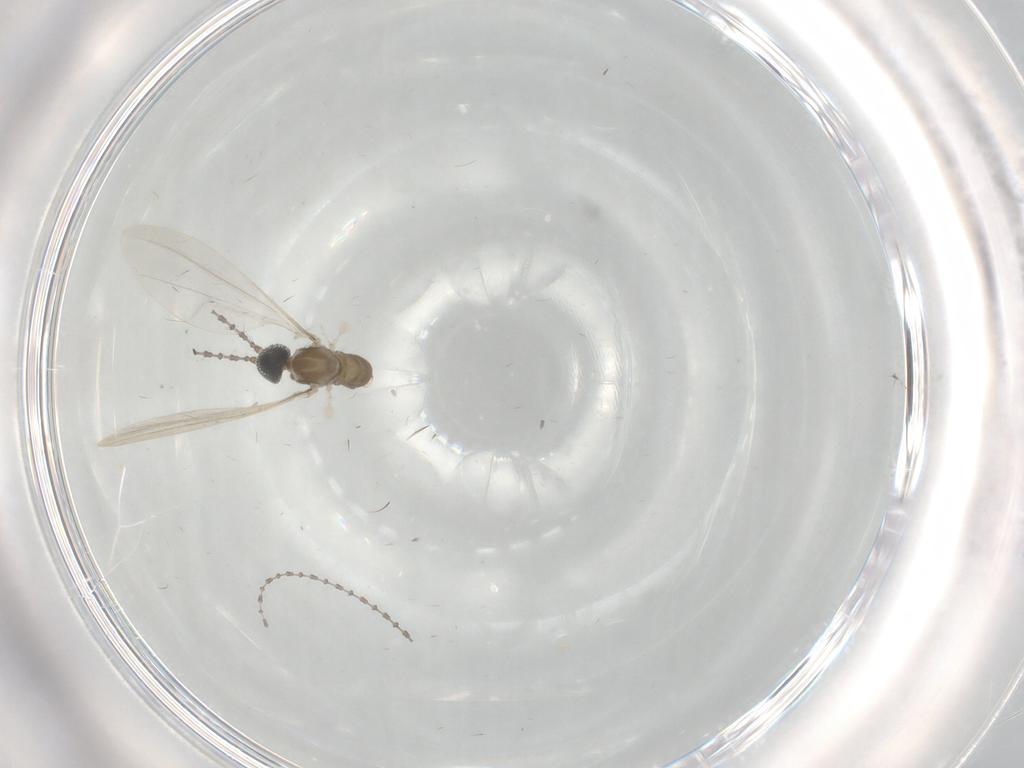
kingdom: Animalia
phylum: Arthropoda
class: Insecta
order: Diptera
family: Cecidomyiidae
